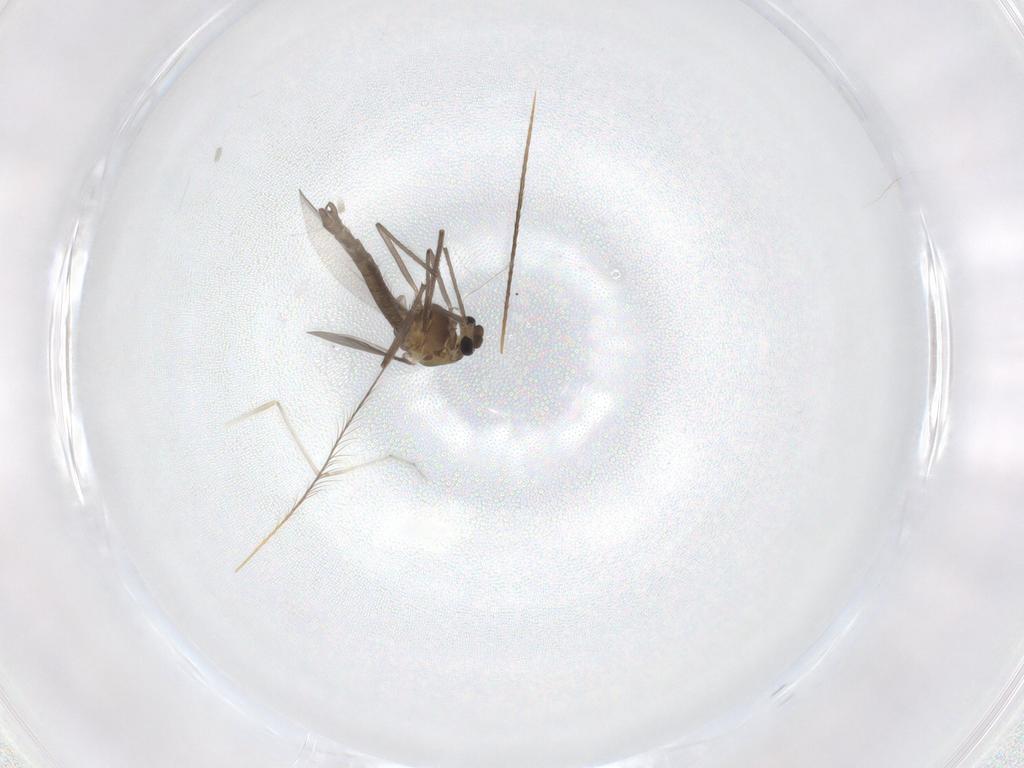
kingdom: Animalia
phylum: Arthropoda
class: Insecta
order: Diptera
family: Chironomidae
